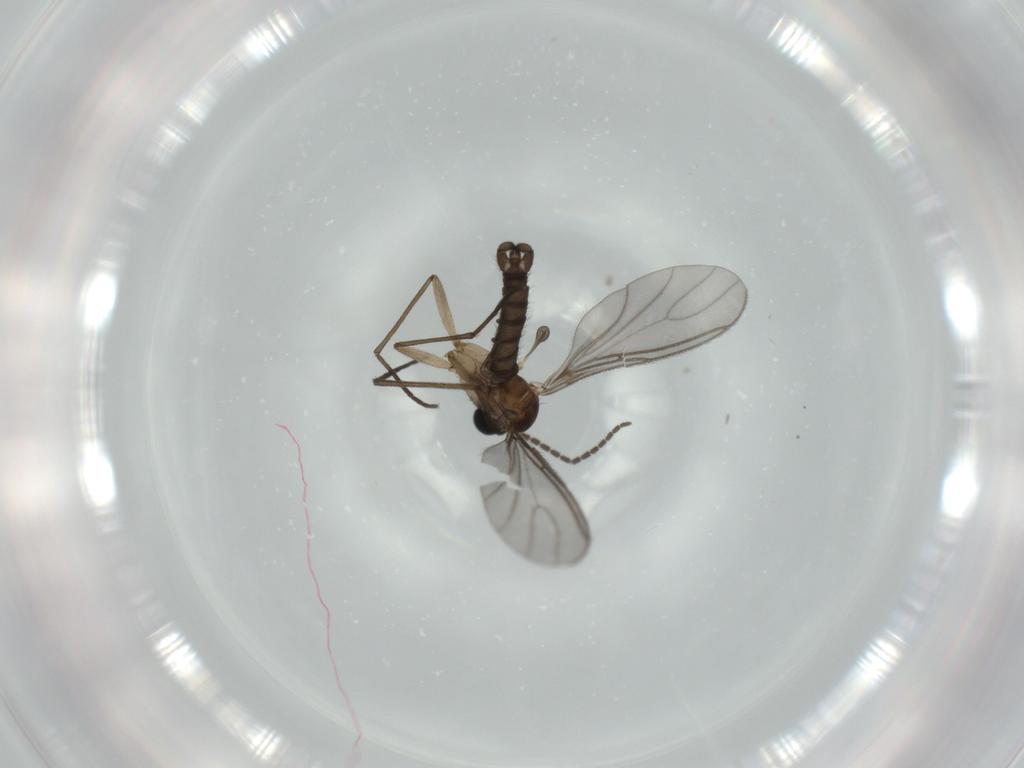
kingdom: Animalia
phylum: Arthropoda
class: Insecta
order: Diptera
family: Sciaridae
